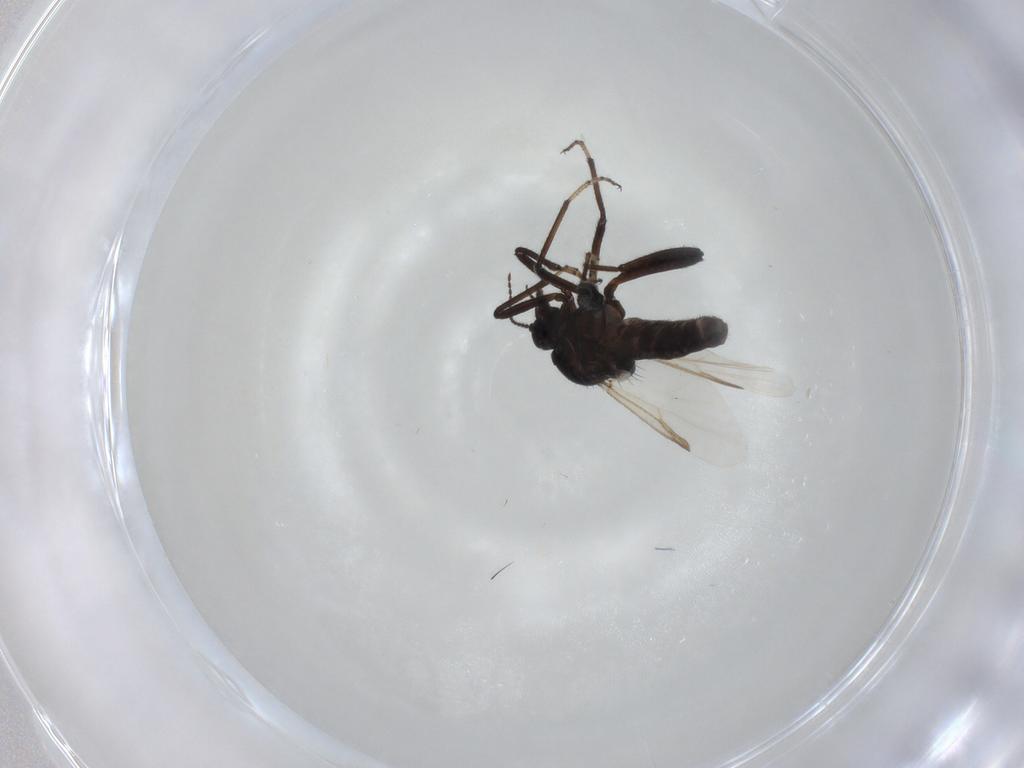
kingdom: Animalia
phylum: Arthropoda
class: Insecta
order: Diptera
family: Ceratopogonidae
